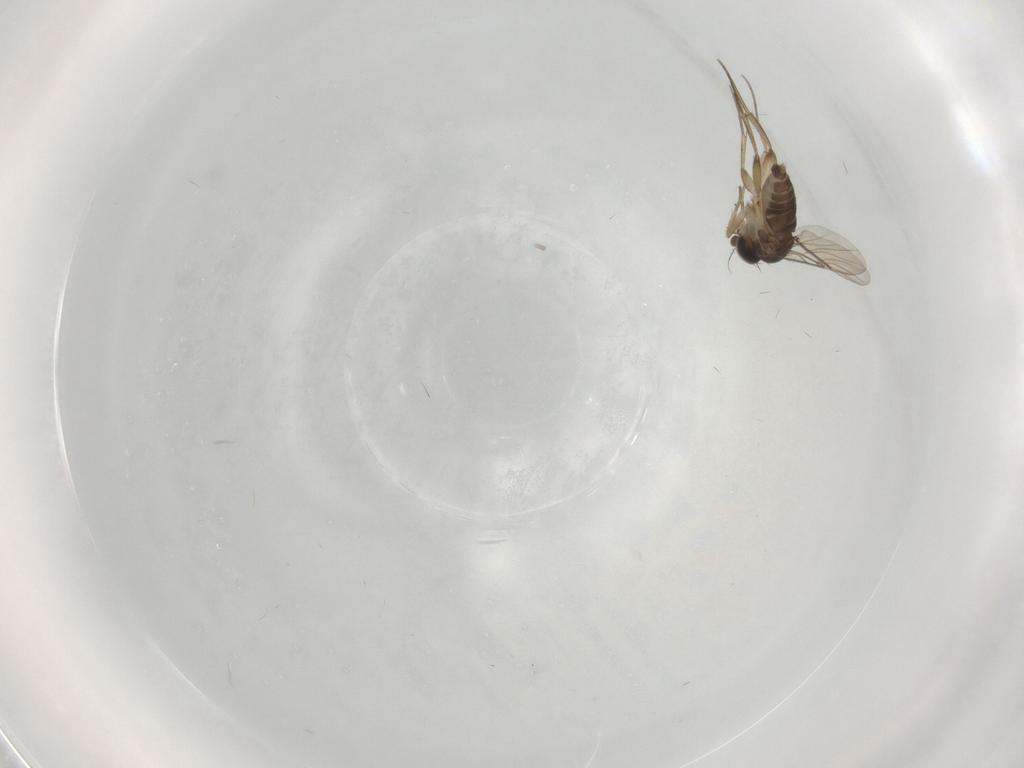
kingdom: Animalia
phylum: Arthropoda
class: Insecta
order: Diptera
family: Phoridae
